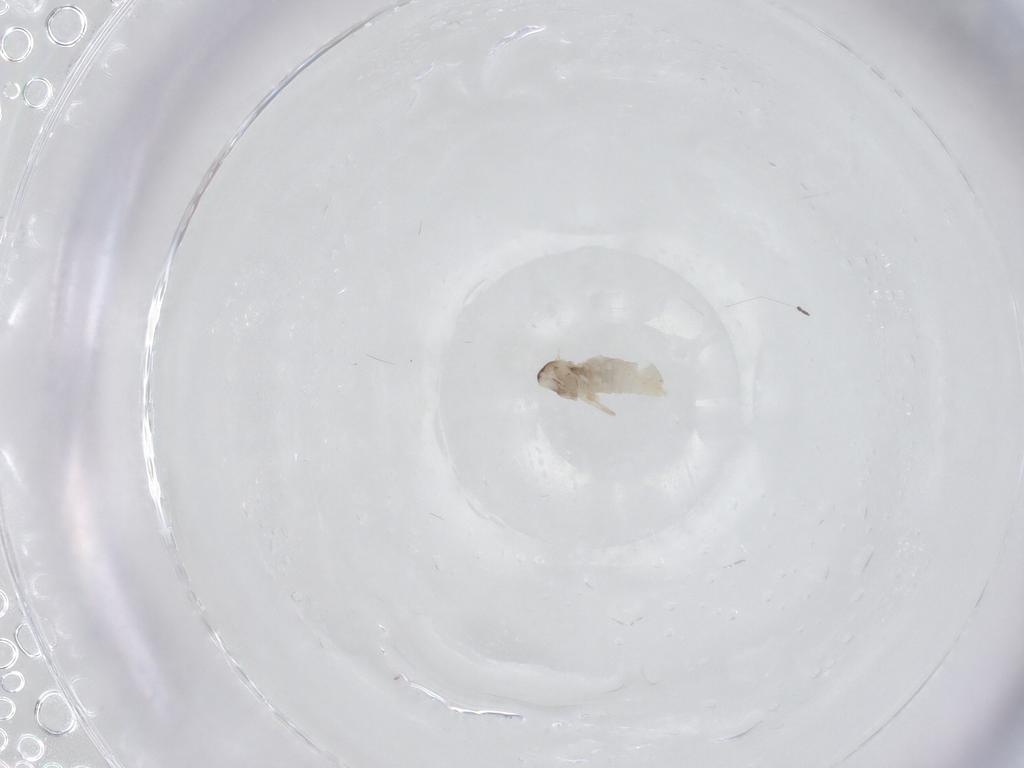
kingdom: Animalia
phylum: Arthropoda
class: Insecta
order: Diptera
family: Cecidomyiidae
